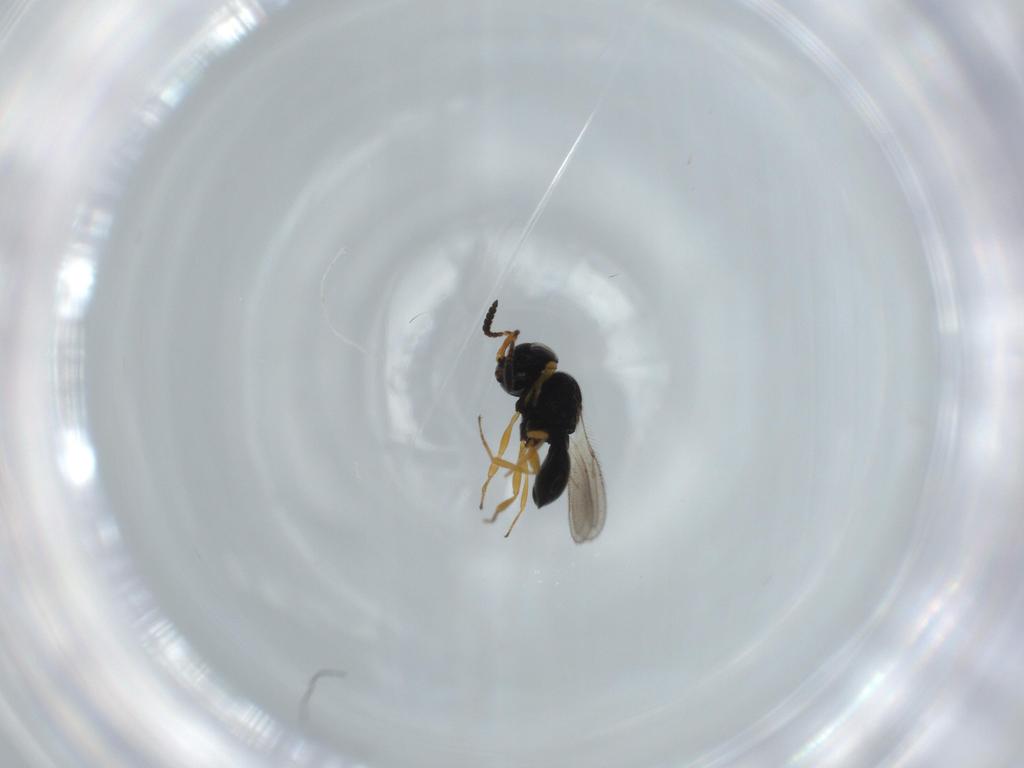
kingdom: Animalia
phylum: Arthropoda
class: Insecta
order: Hymenoptera
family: Scelionidae
